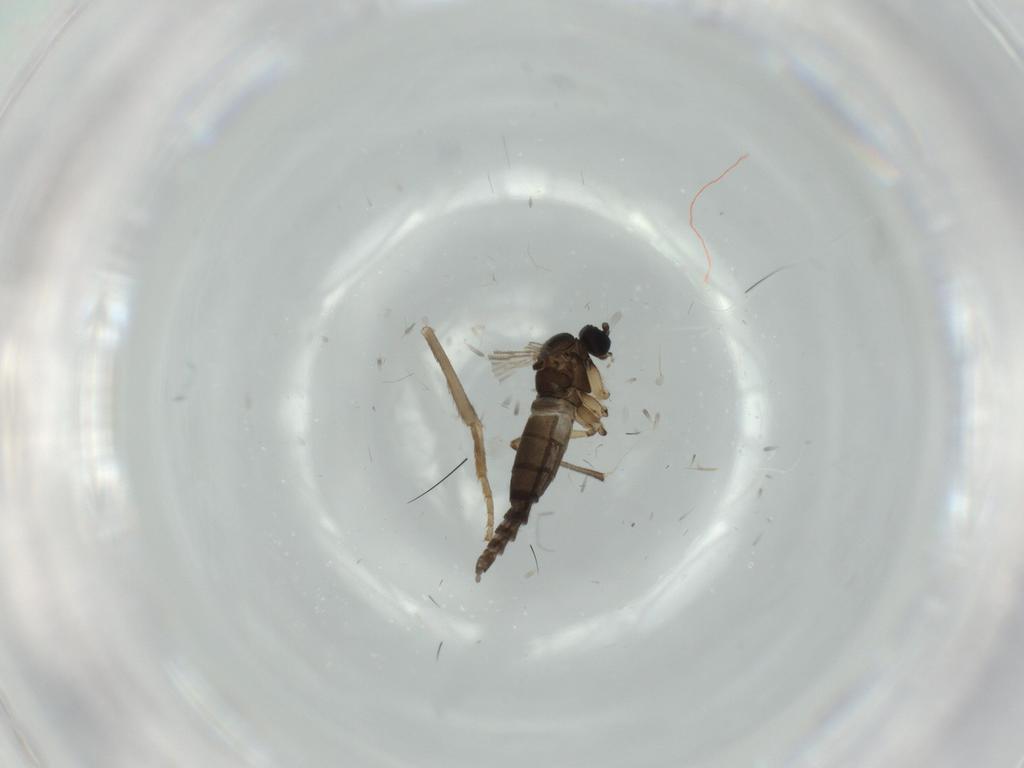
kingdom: Animalia
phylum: Arthropoda
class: Insecta
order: Diptera
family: Sciaridae
